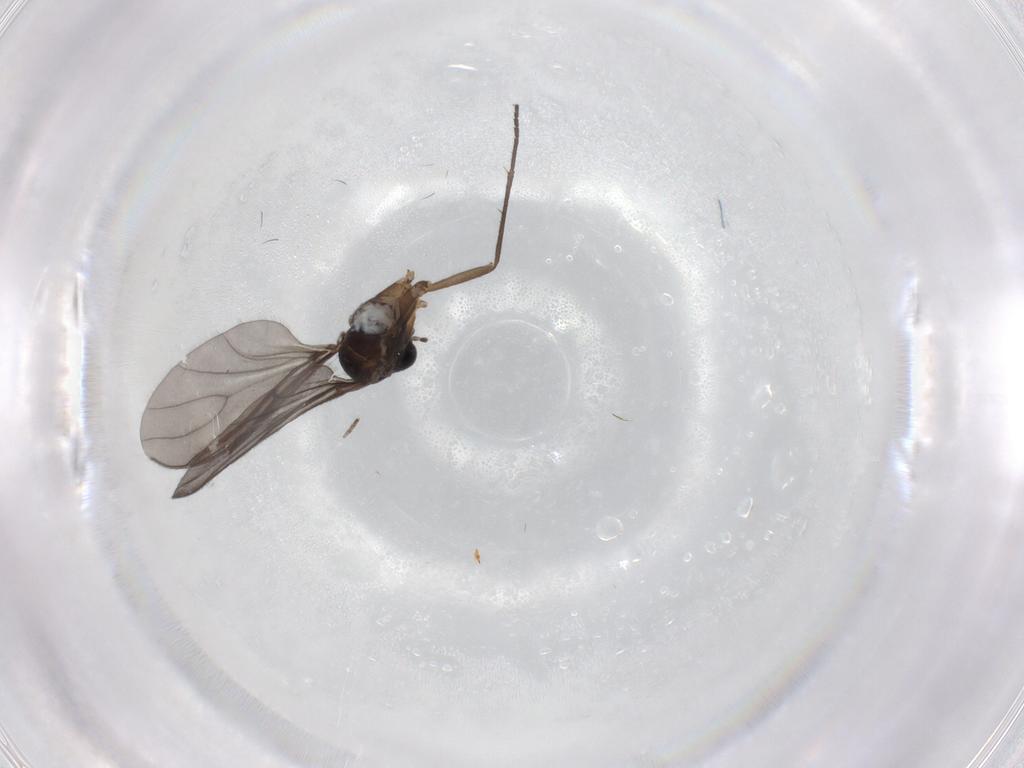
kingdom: Animalia
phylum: Arthropoda
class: Insecta
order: Diptera
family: Sciaridae
